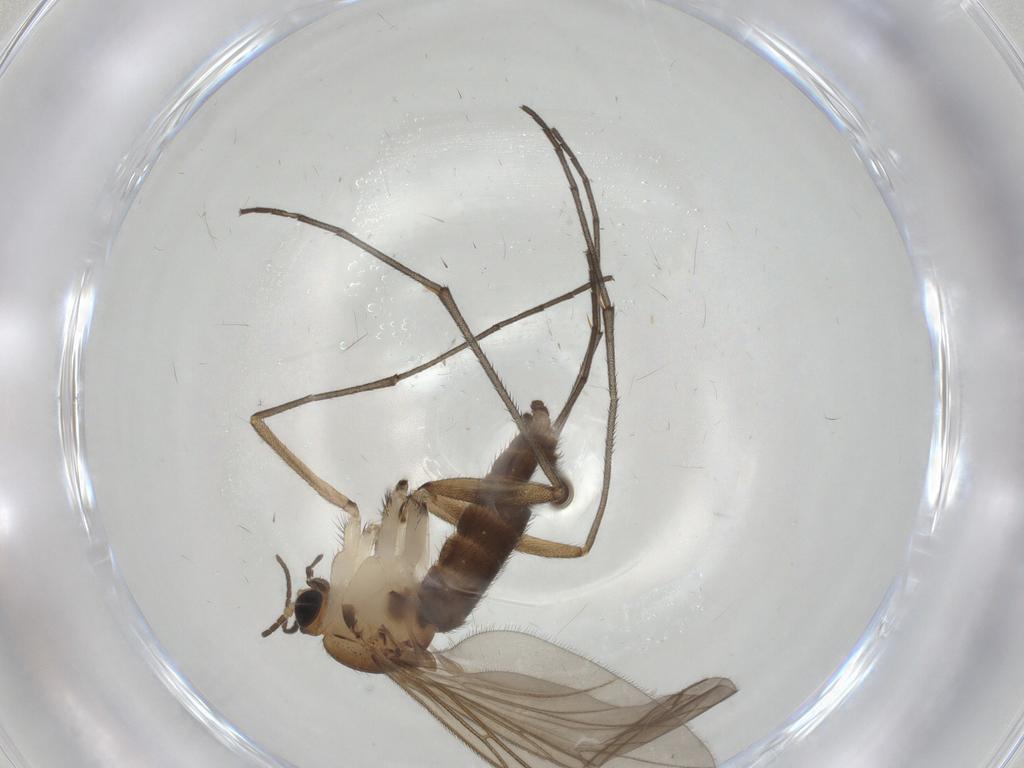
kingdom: Animalia
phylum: Arthropoda
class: Insecta
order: Diptera
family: Sciaridae
